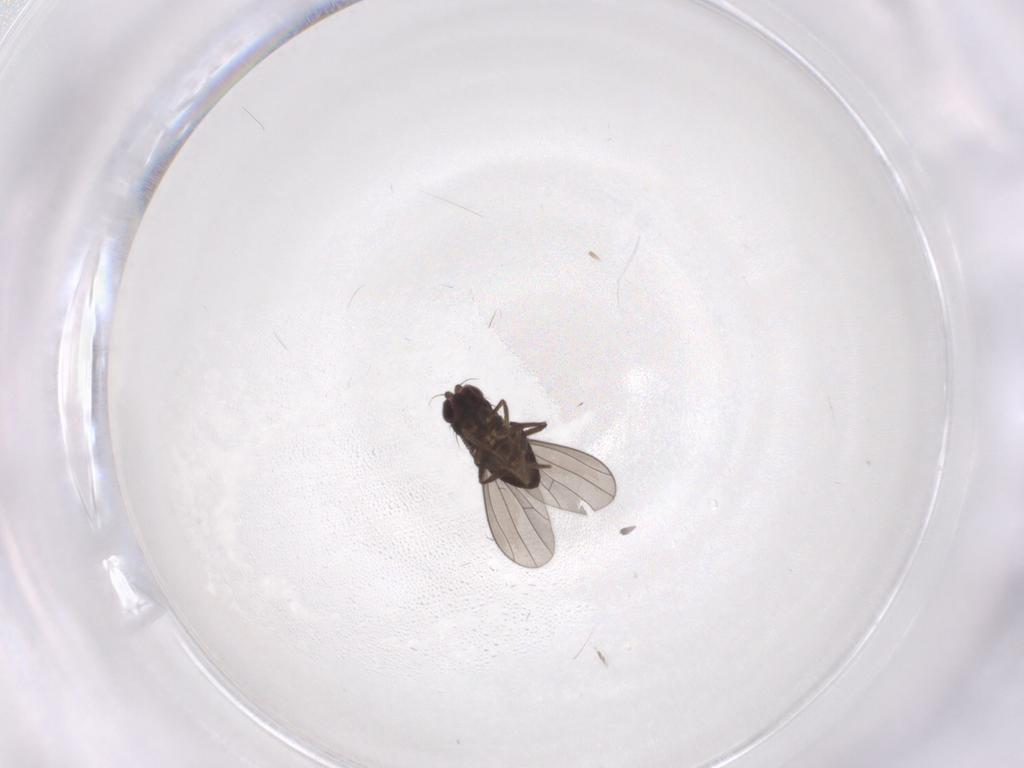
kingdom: Animalia
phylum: Arthropoda
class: Insecta
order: Diptera
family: Dolichopodidae
